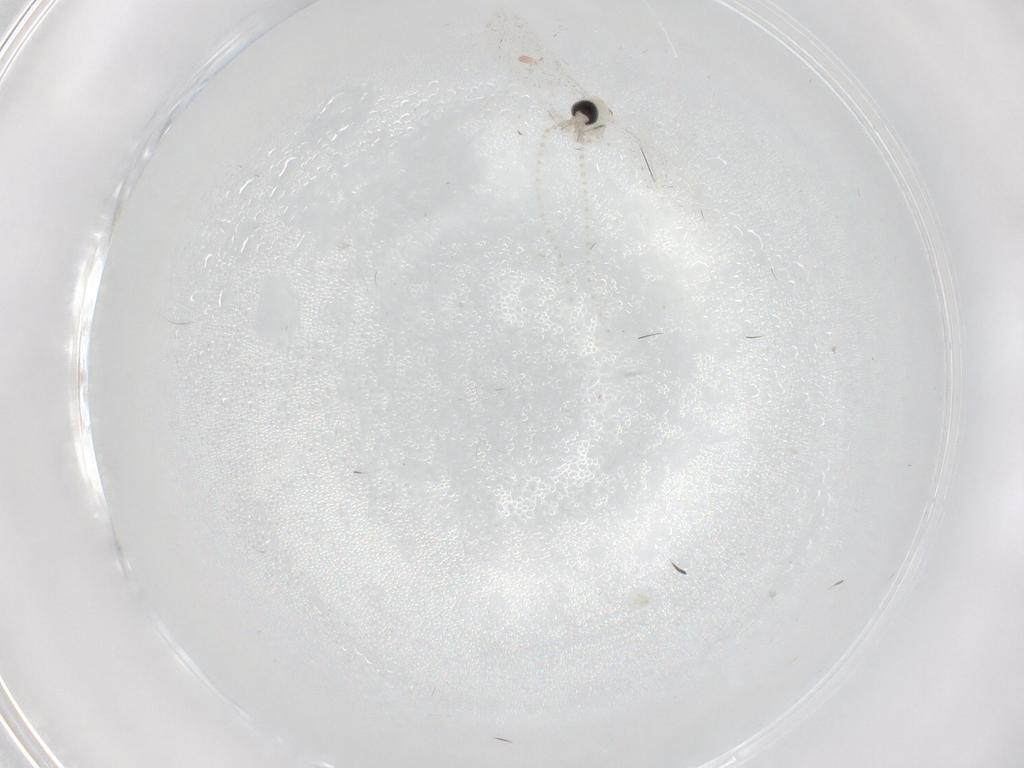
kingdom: Animalia
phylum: Arthropoda
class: Insecta
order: Diptera
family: Cecidomyiidae
